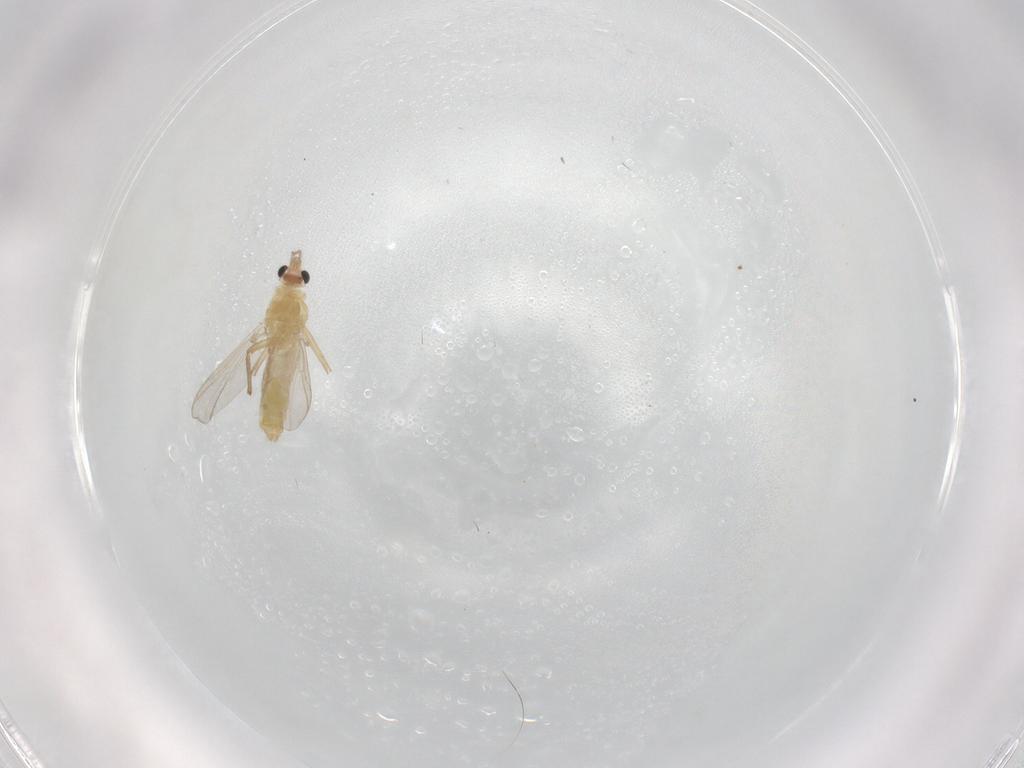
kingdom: Animalia
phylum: Arthropoda
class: Insecta
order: Diptera
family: Chironomidae
